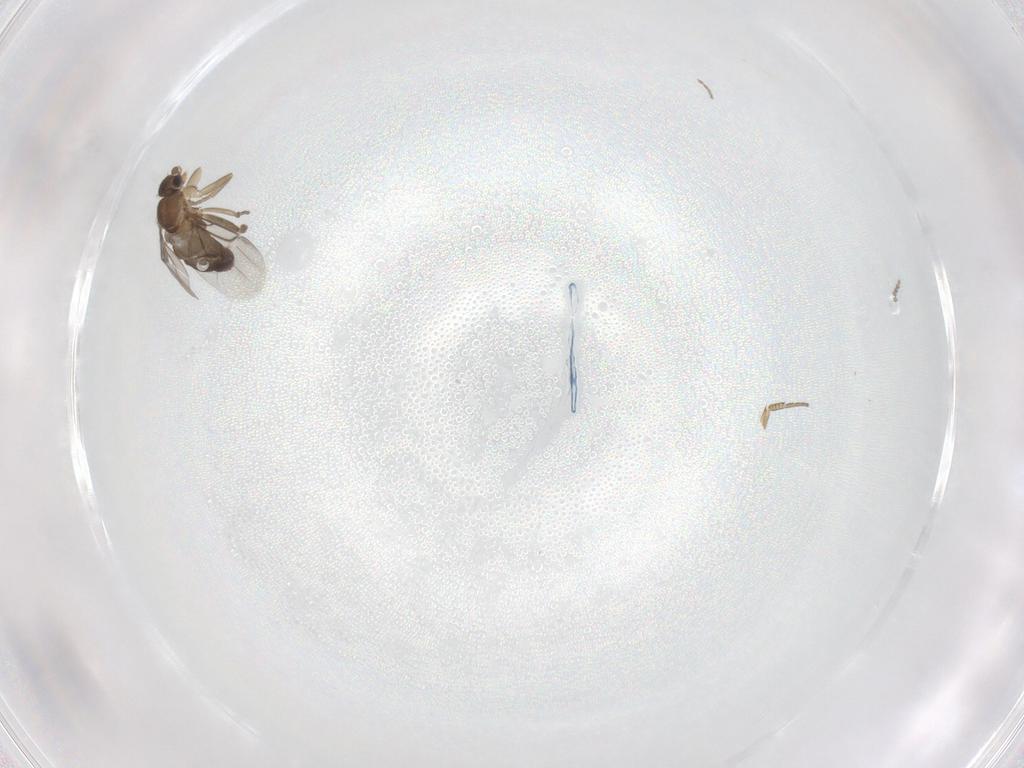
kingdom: Animalia
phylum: Arthropoda
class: Insecta
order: Diptera
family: Phoridae
